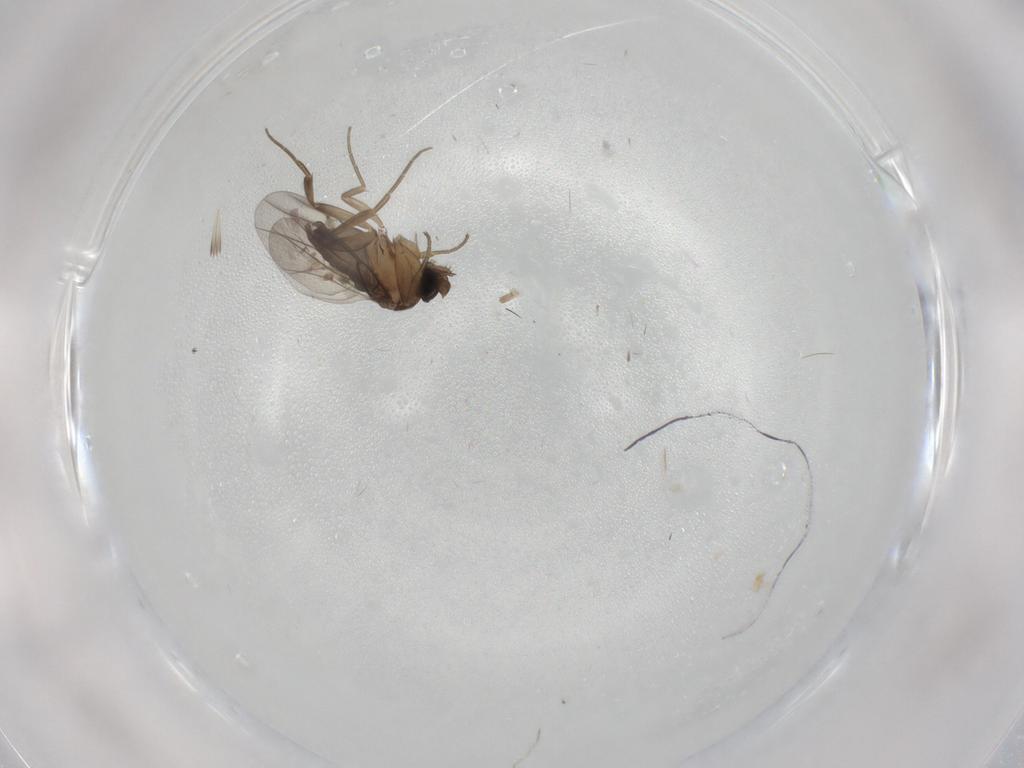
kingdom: Animalia
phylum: Arthropoda
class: Insecta
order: Diptera
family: Phoridae
